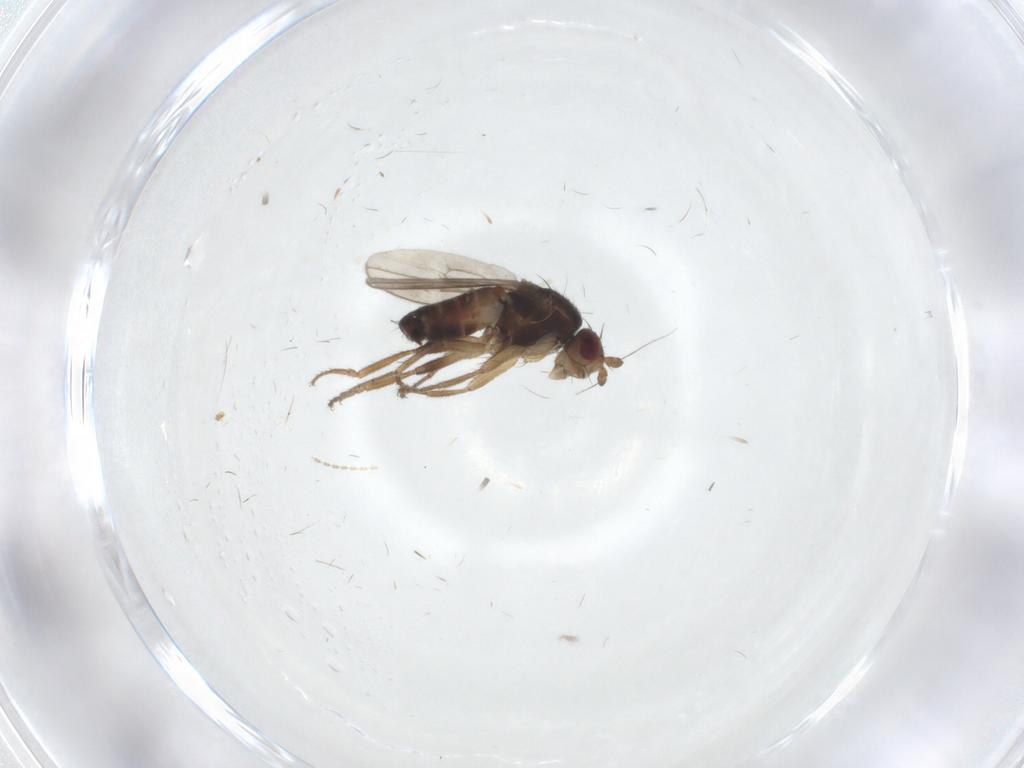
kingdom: Animalia
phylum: Arthropoda
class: Insecta
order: Diptera
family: Sphaeroceridae
